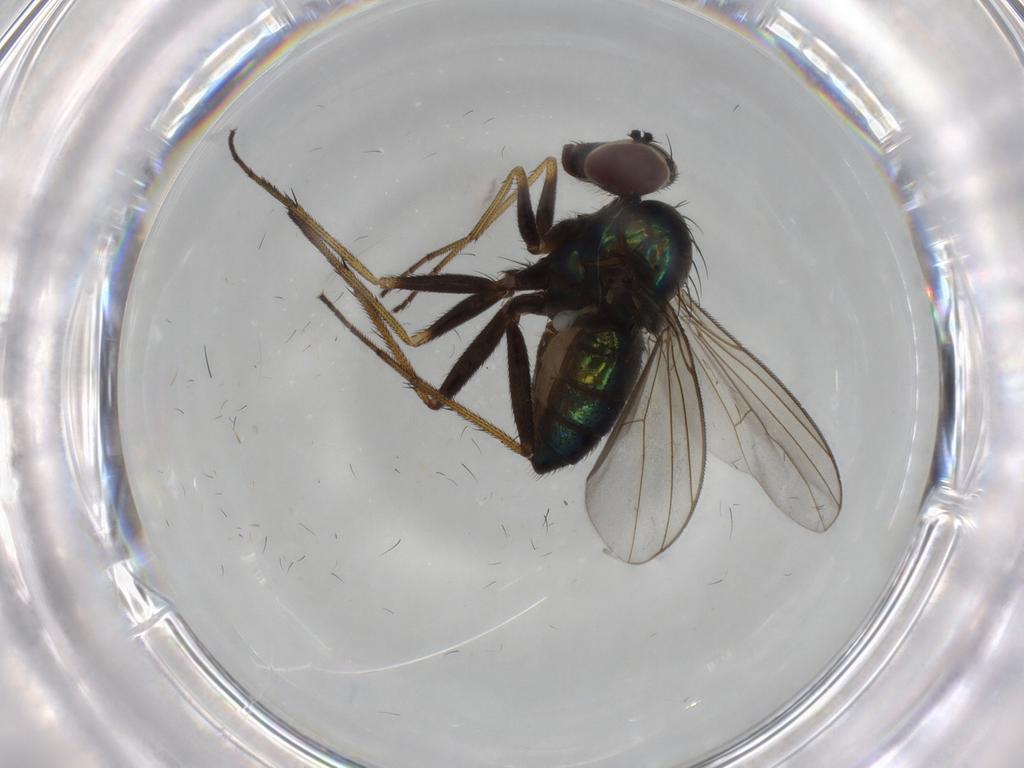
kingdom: Animalia
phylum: Arthropoda
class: Insecta
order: Diptera
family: Dolichopodidae
